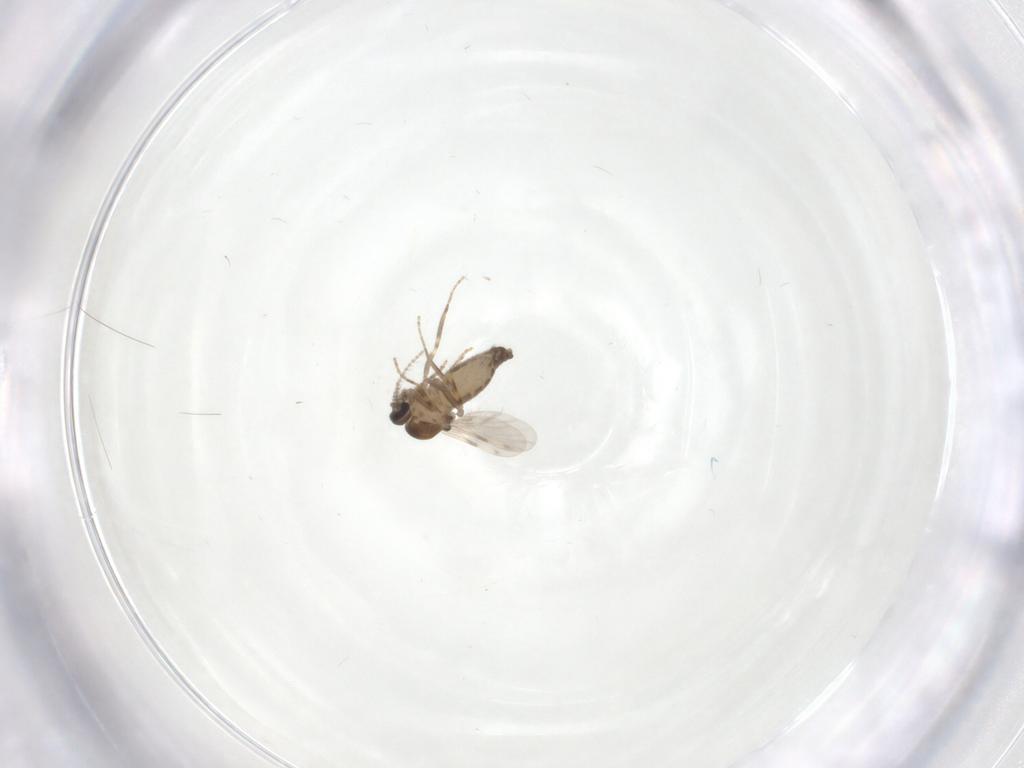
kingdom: Animalia
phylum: Arthropoda
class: Insecta
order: Diptera
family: Ceratopogonidae
